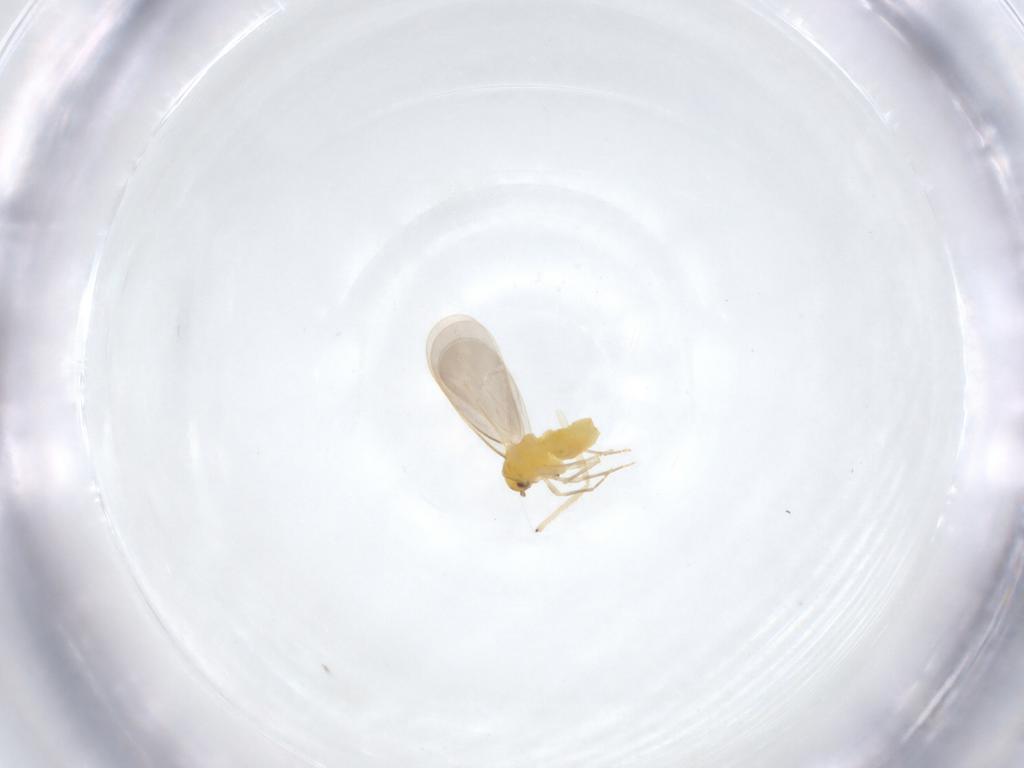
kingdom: Animalia
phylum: Arthropoda
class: Insecta
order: Hemiptera
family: Aleyrodidae
